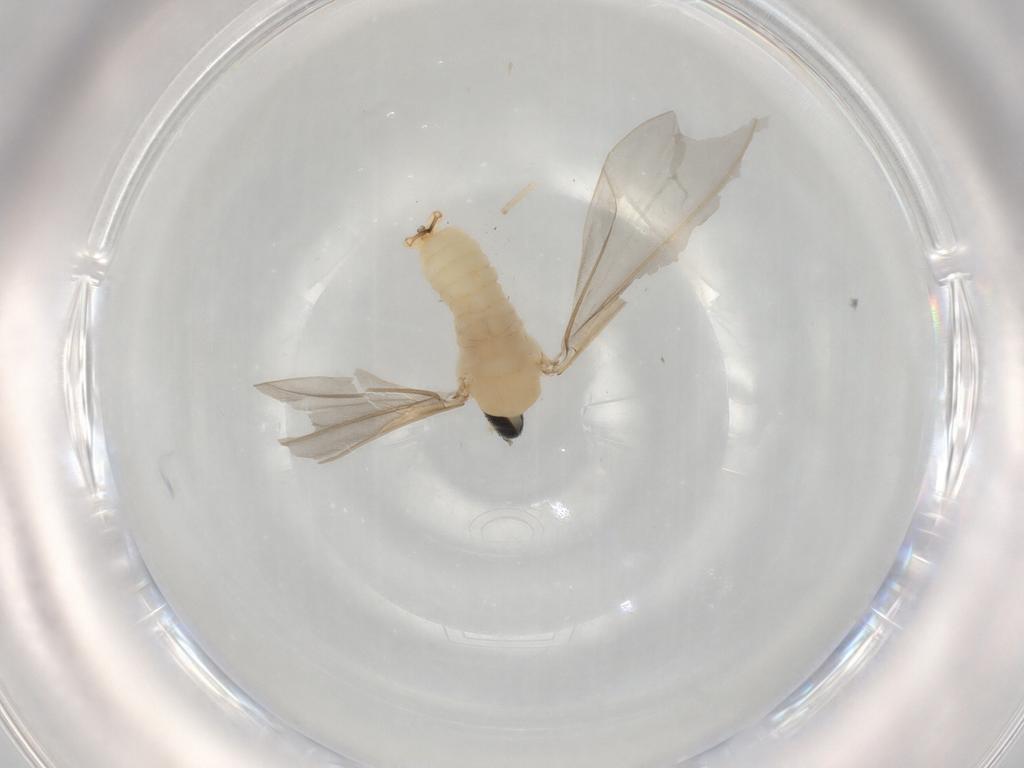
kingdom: Animalia
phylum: Arthropoda
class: Insecta
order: Diptera
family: Cecidomyiidae
